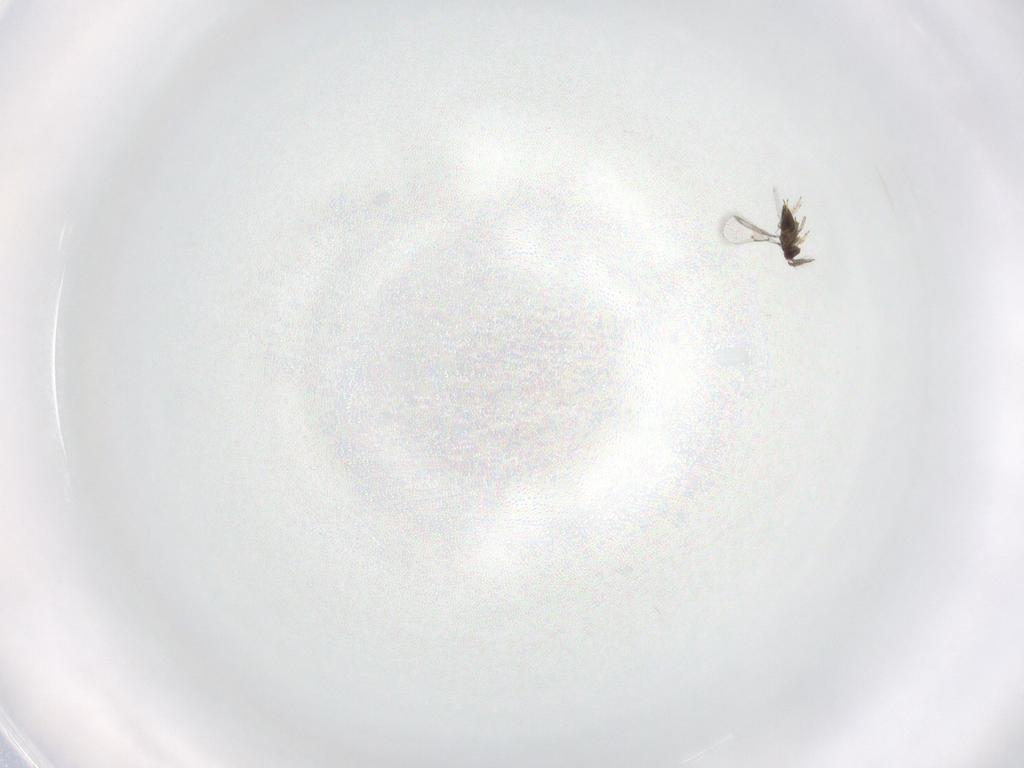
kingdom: Animalia
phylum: Arthropoda
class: Insecta
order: Hymenoptera
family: Trichogrammatidae
